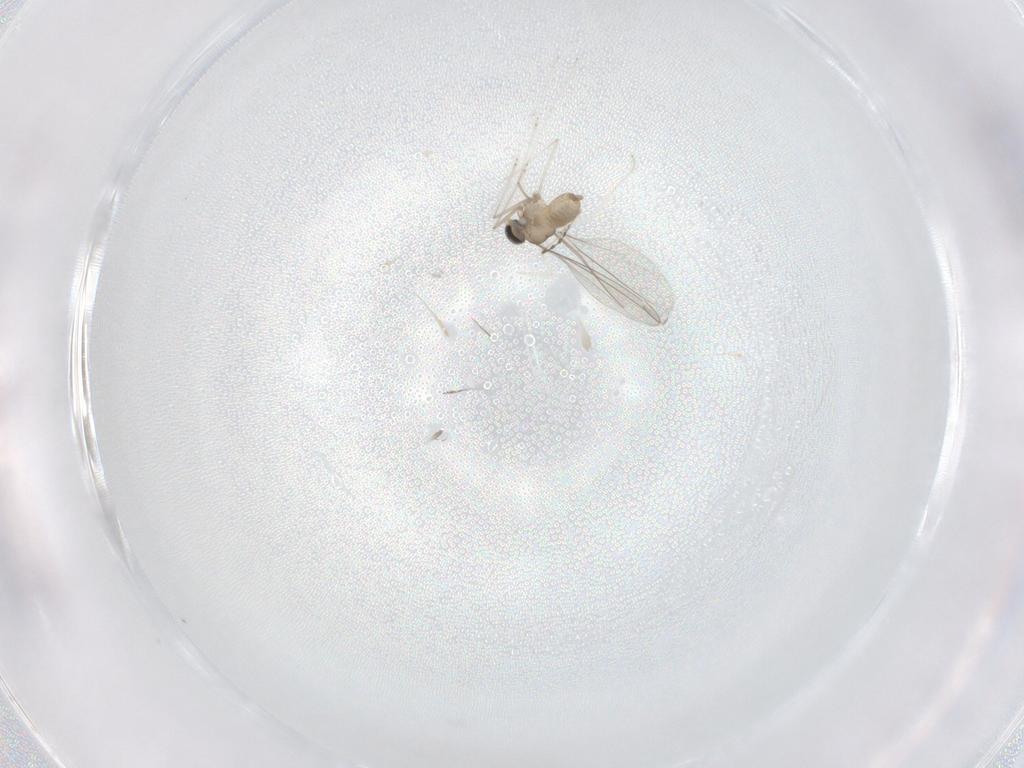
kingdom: Animalia
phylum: Arthropoda
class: Insecta
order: Diptera
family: Cecidomyiidae
